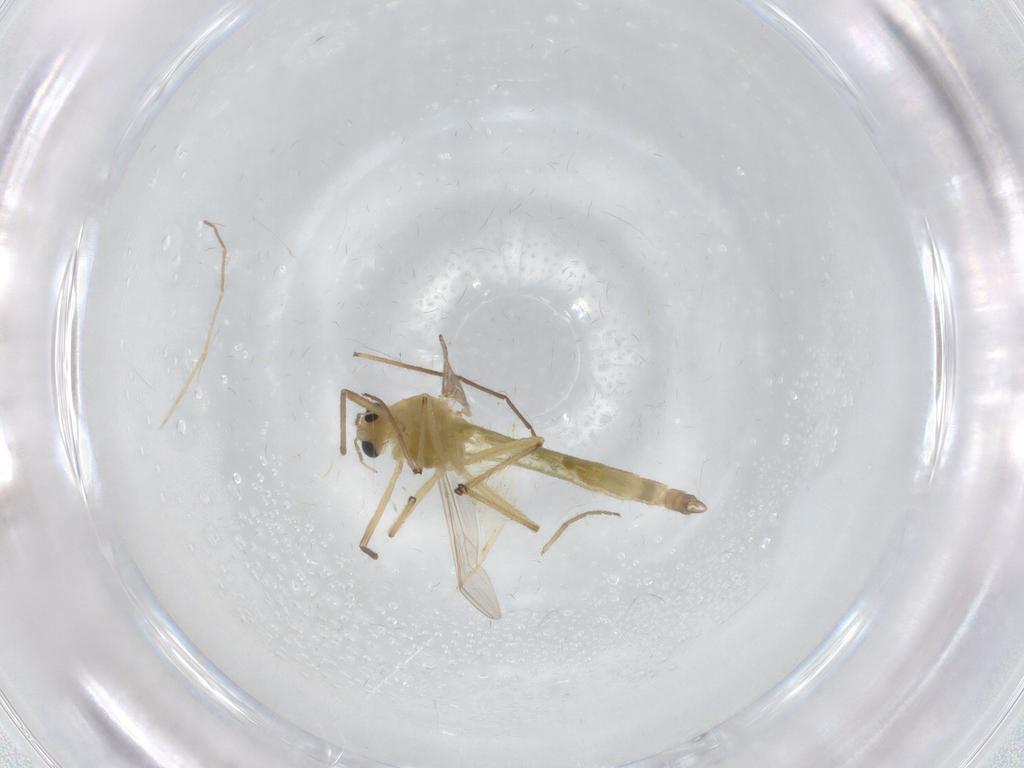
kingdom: Animalia
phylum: Arthropoda
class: Insecta
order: Diptera
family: Chironomidae
